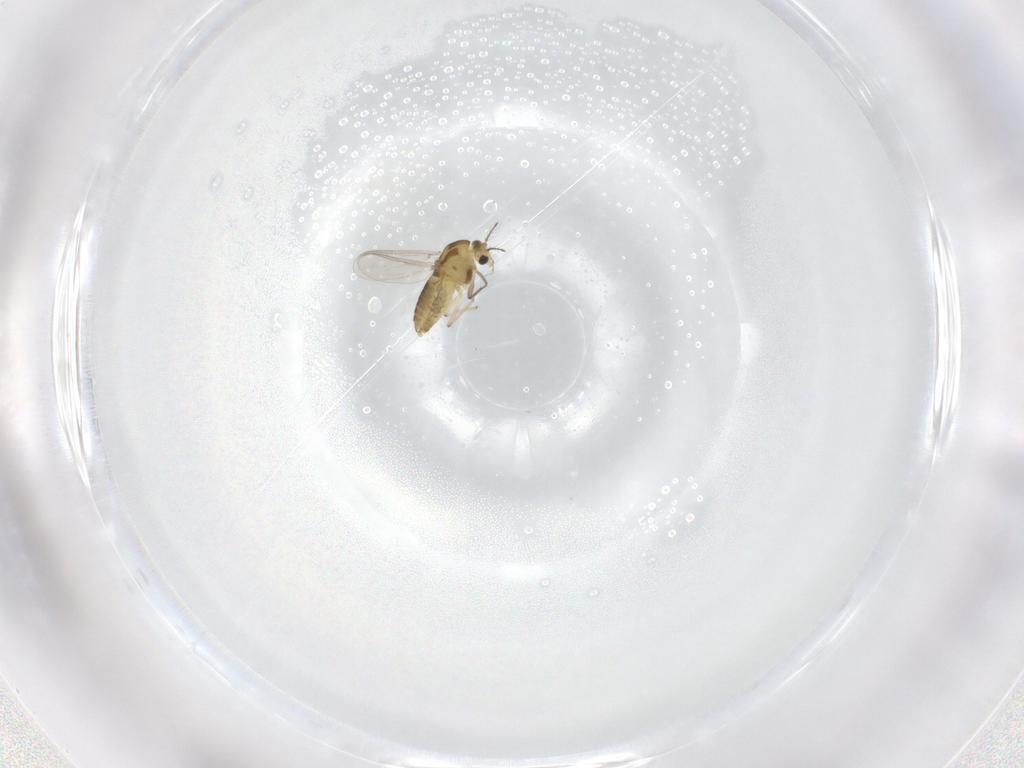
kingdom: Animalia
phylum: Arthropoda
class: Insecta
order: Diptera
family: Chironomidae
